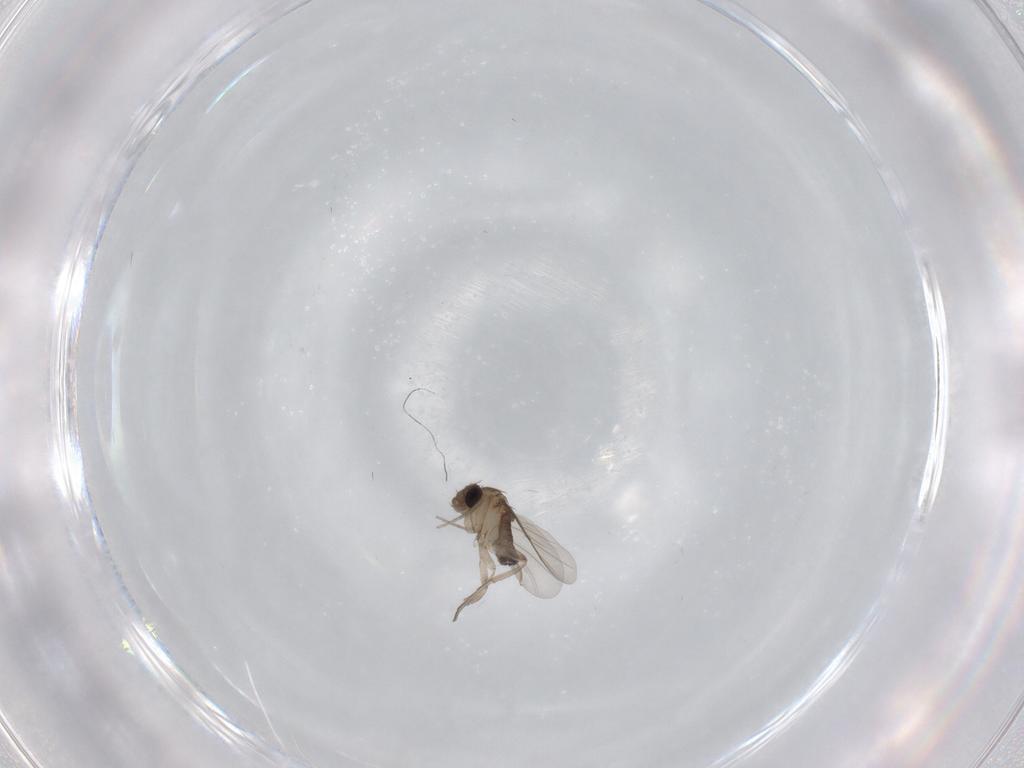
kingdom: Animalia
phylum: Arthropoda
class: Insecta
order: Diptera
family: Phoridae
